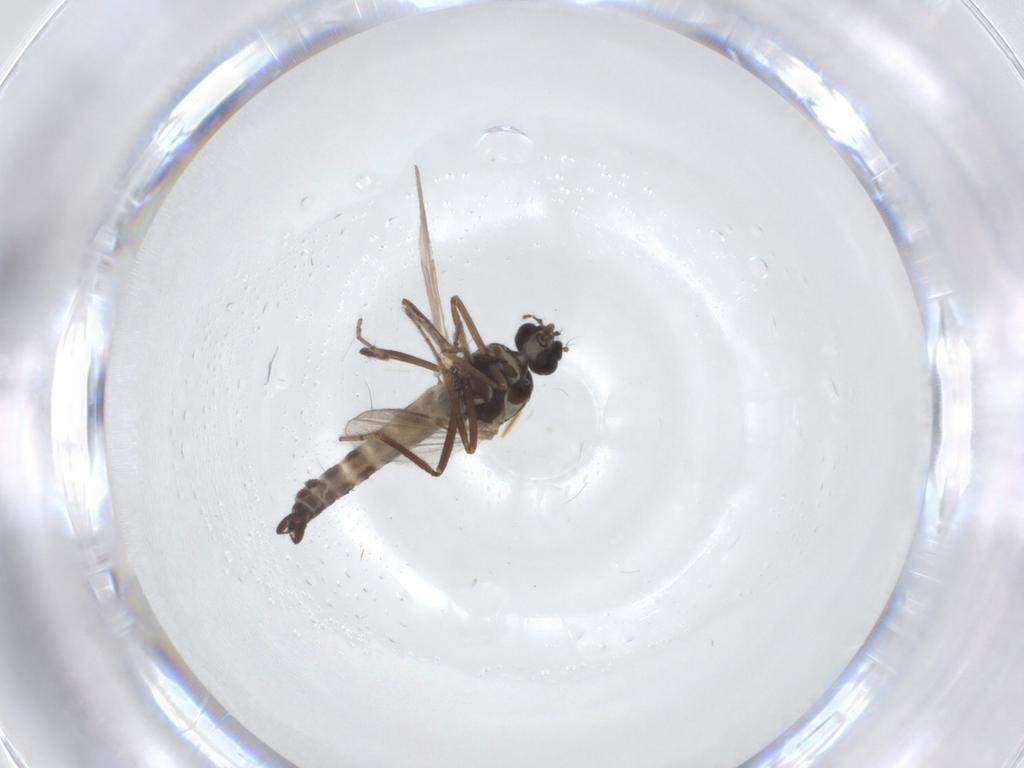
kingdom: Animalia
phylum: Arthropoda
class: Insecta
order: Diptera
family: Ceratopogonidae
